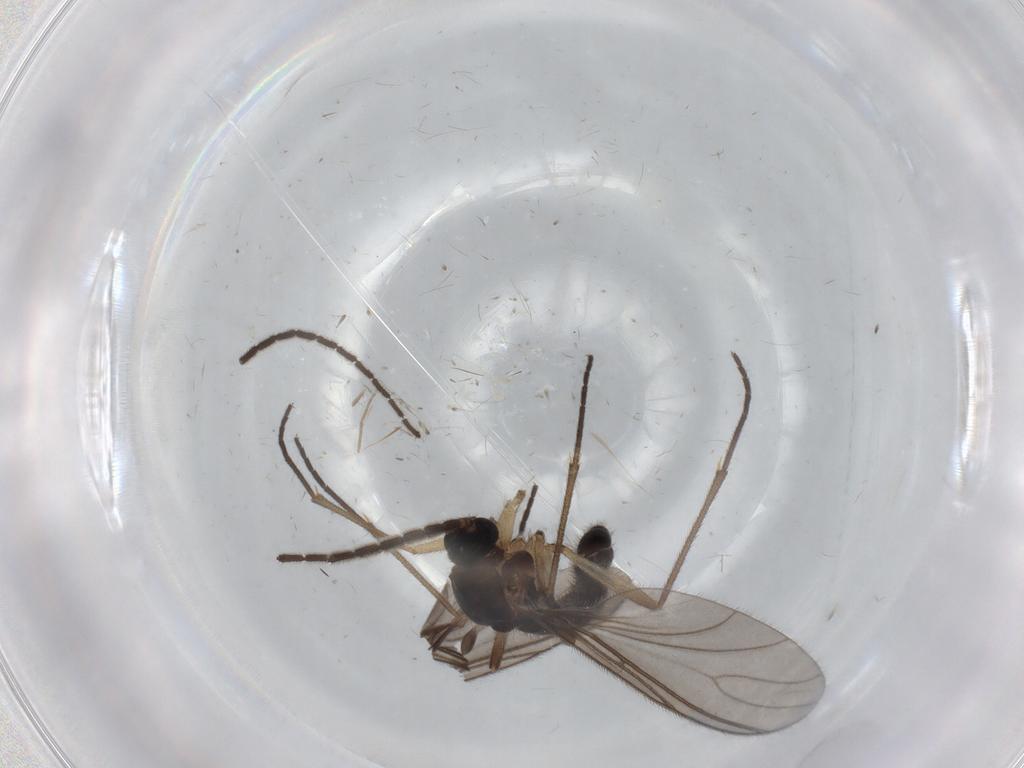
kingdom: Animalia
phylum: Arthropoda
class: Insecta
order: Diptera
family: Sciaridae
